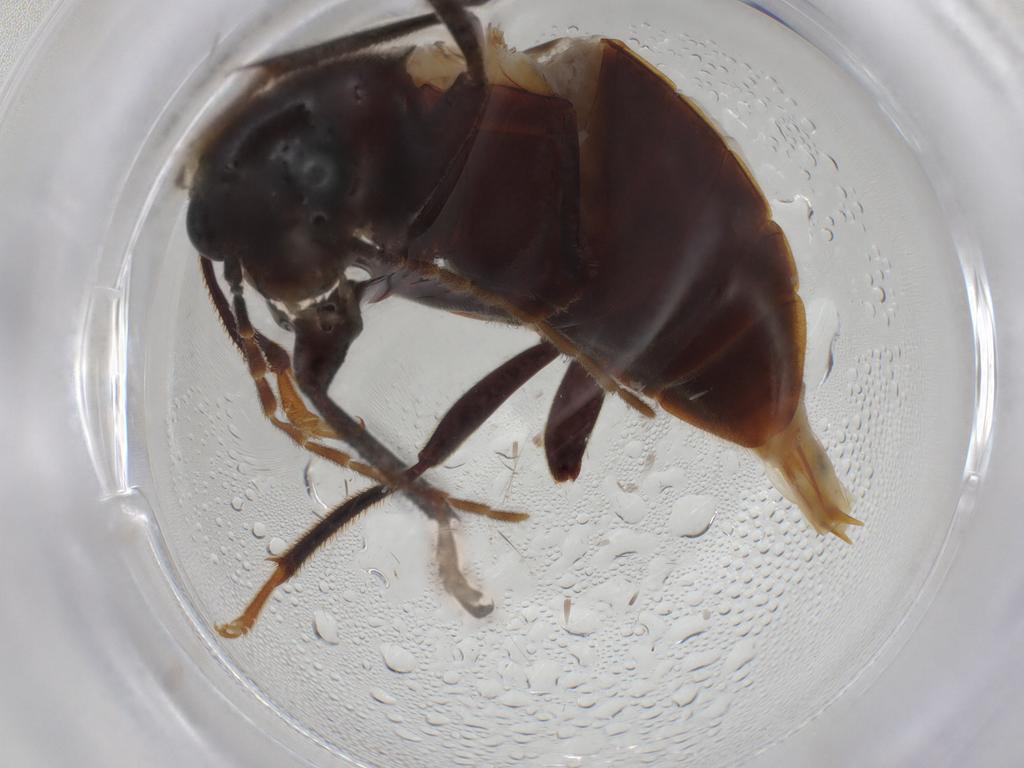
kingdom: Animalia
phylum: Arthropoda
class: Insecta
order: Coleoptera
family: Ptilodactylidae
